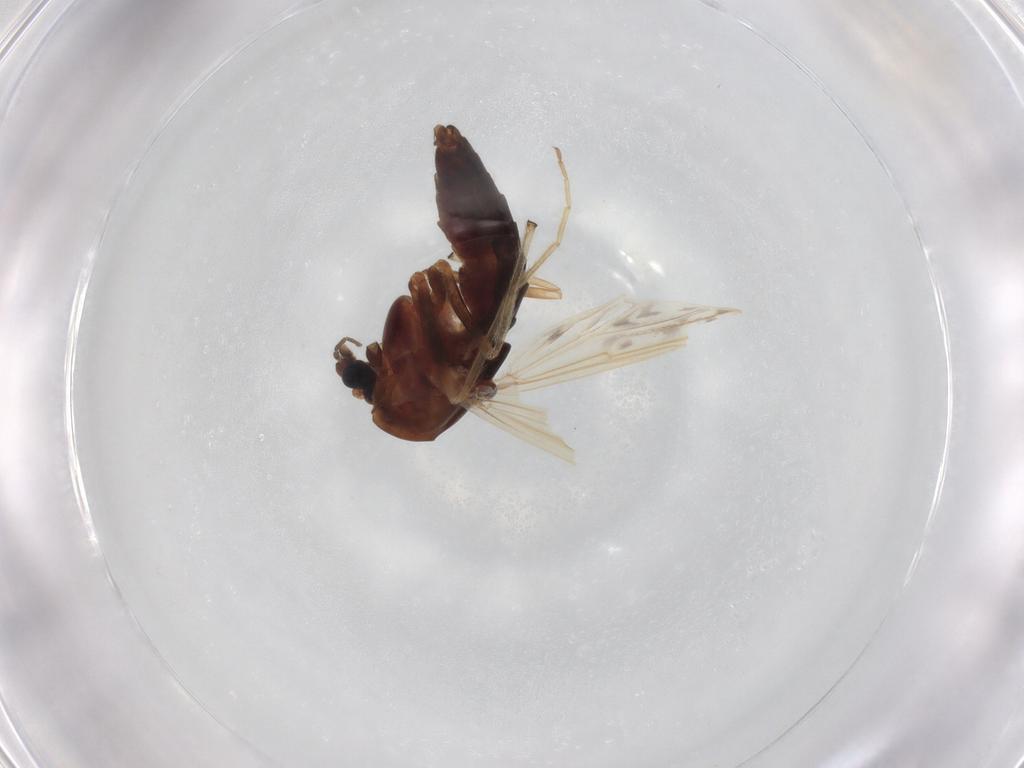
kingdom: Animalia
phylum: Arthropoda
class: Insecta
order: Diptera
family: Chironomidae
